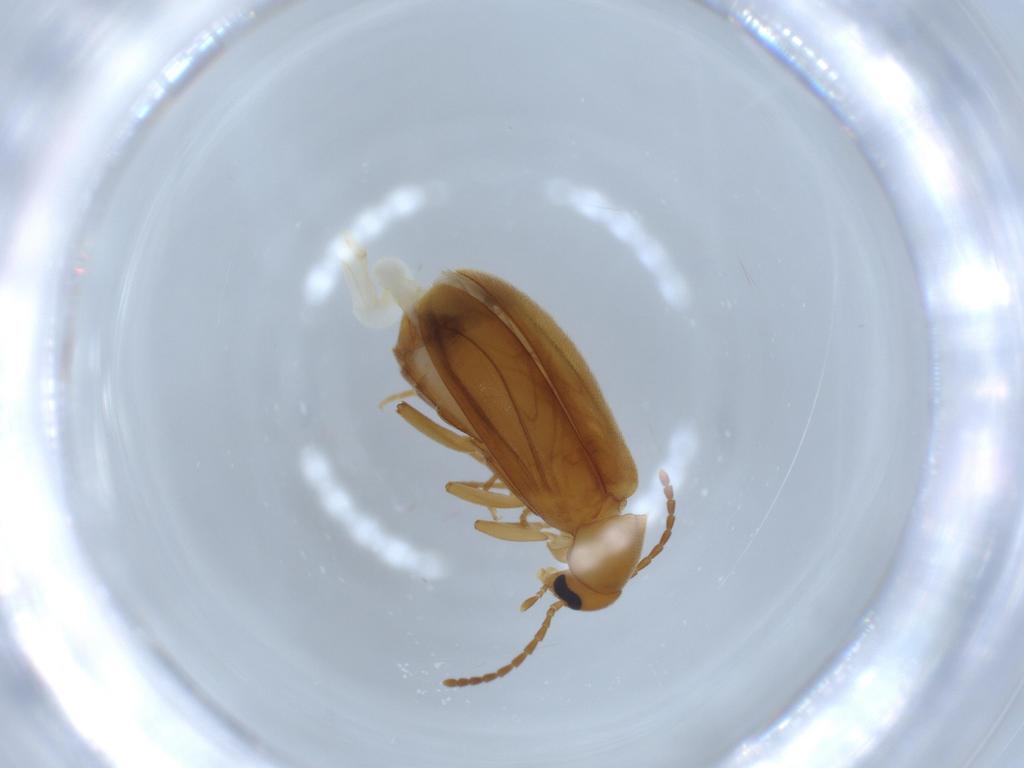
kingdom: Animalia
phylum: Arthropoda
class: Insecta
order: Coleoptera
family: Scraptiidae
